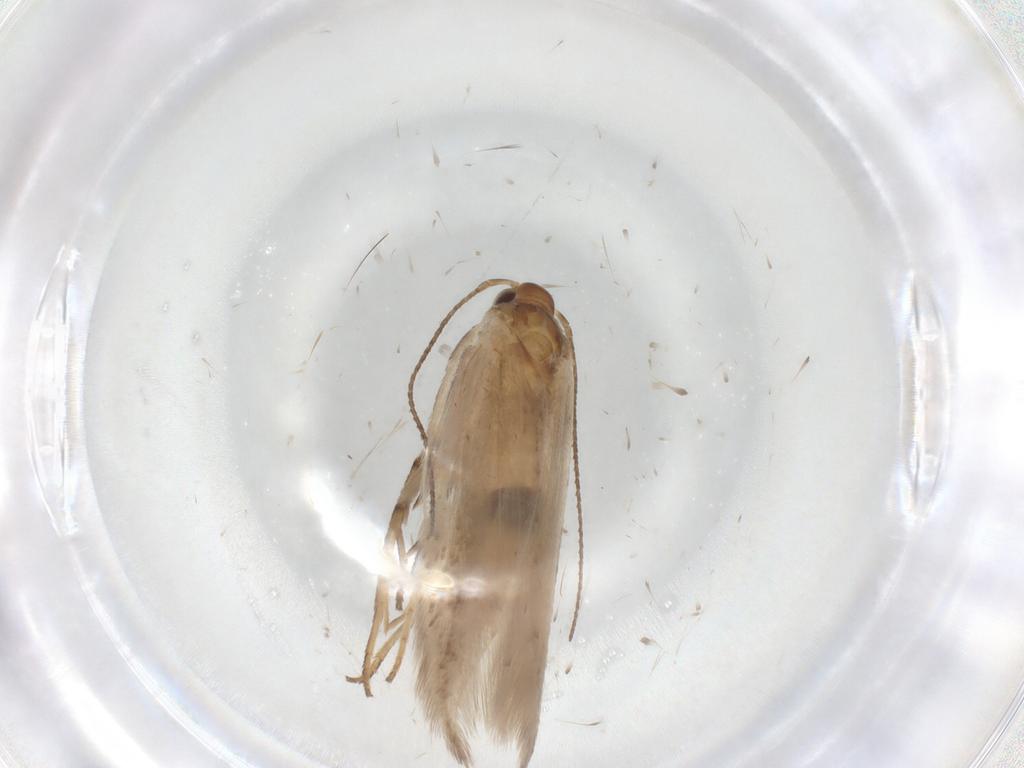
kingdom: Animalia
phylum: Arthropoda
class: Insecta
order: Lepidoptera
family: Gelechiidae
